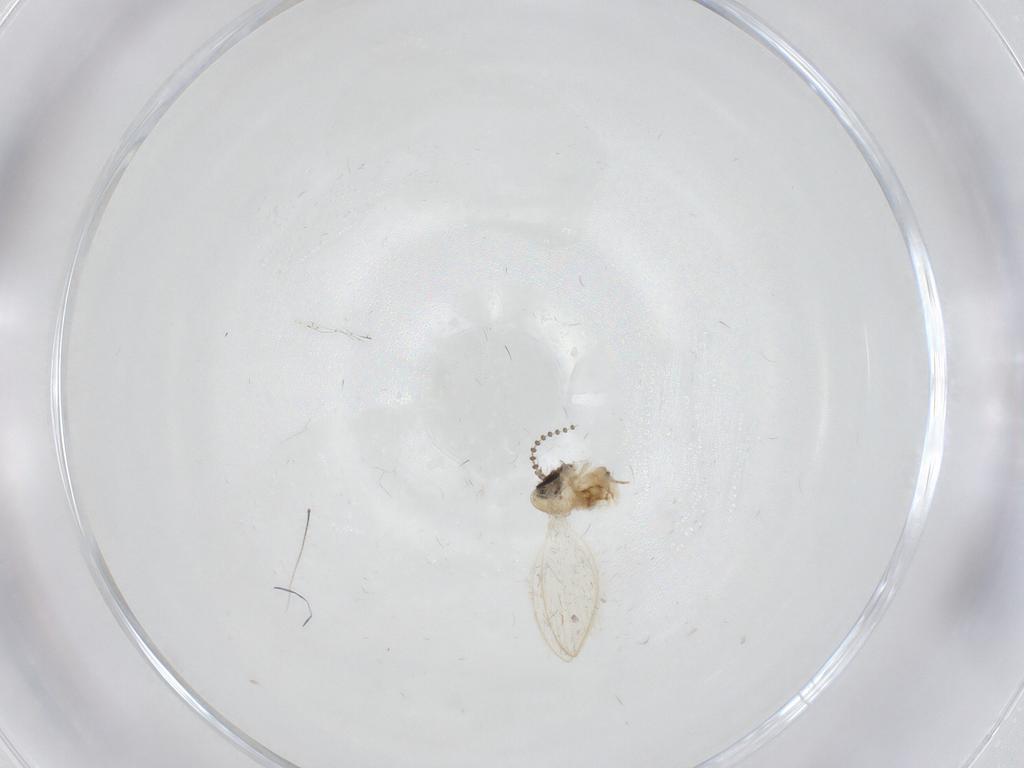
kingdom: Animalia
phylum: Arthropoda
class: Insecta
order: Diptera
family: Psychodidae
